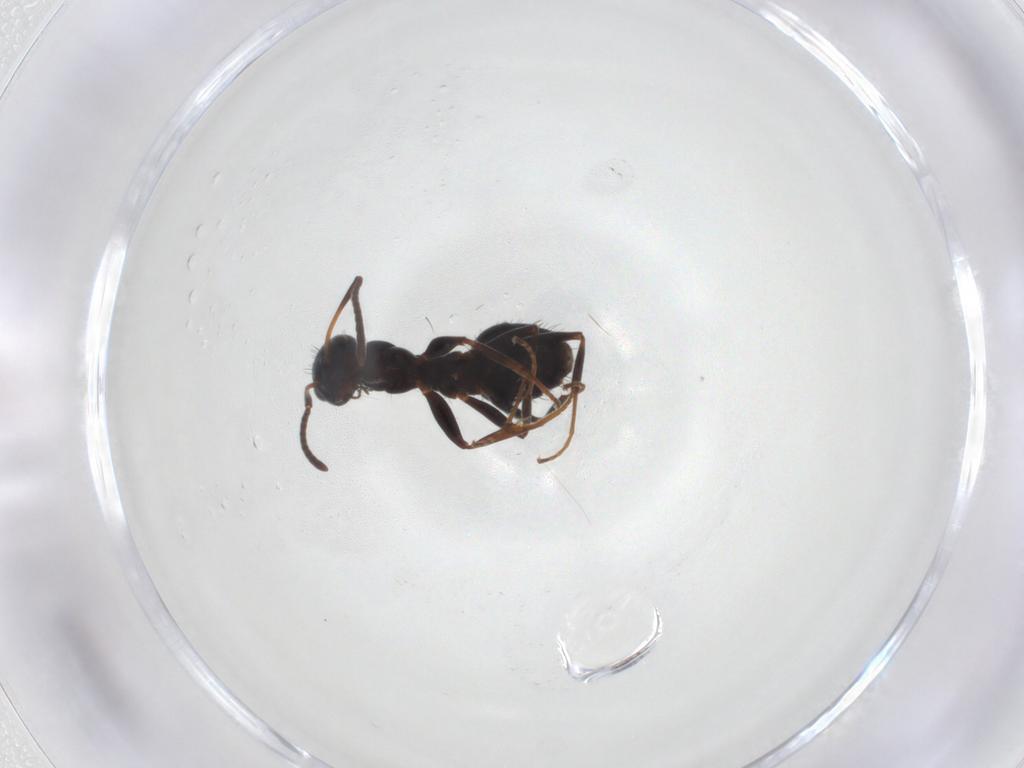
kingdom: Animalia
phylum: Arthropoda
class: Insecta
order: Hymenoptera
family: Formicidae
